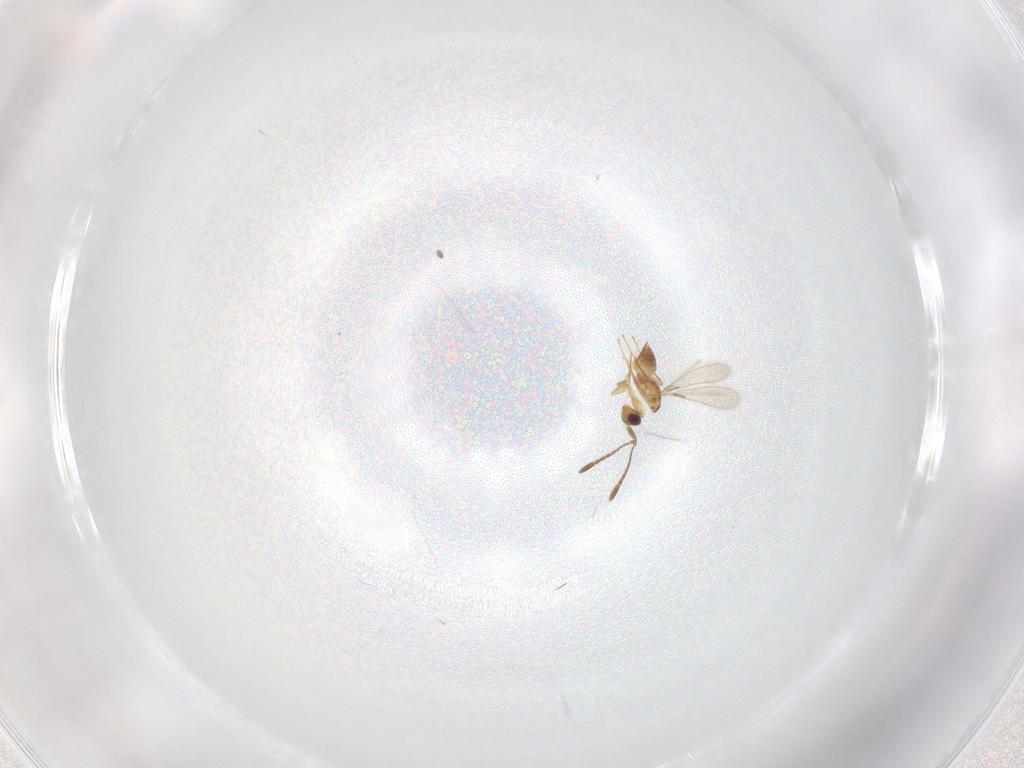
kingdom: Animalia
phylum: Arthropoda
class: Insecta
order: Hymenoptera
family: Mymaridae
